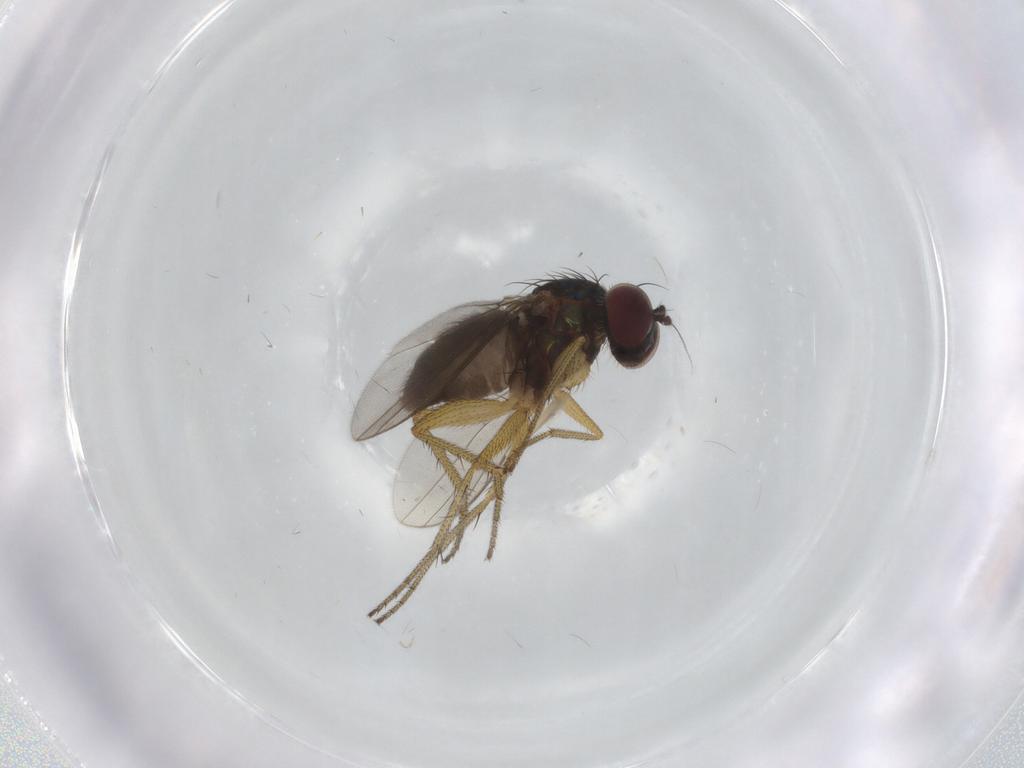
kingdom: Animalia
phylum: Arthropoda
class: Insecta
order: Diptera
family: Dolichopodidae
